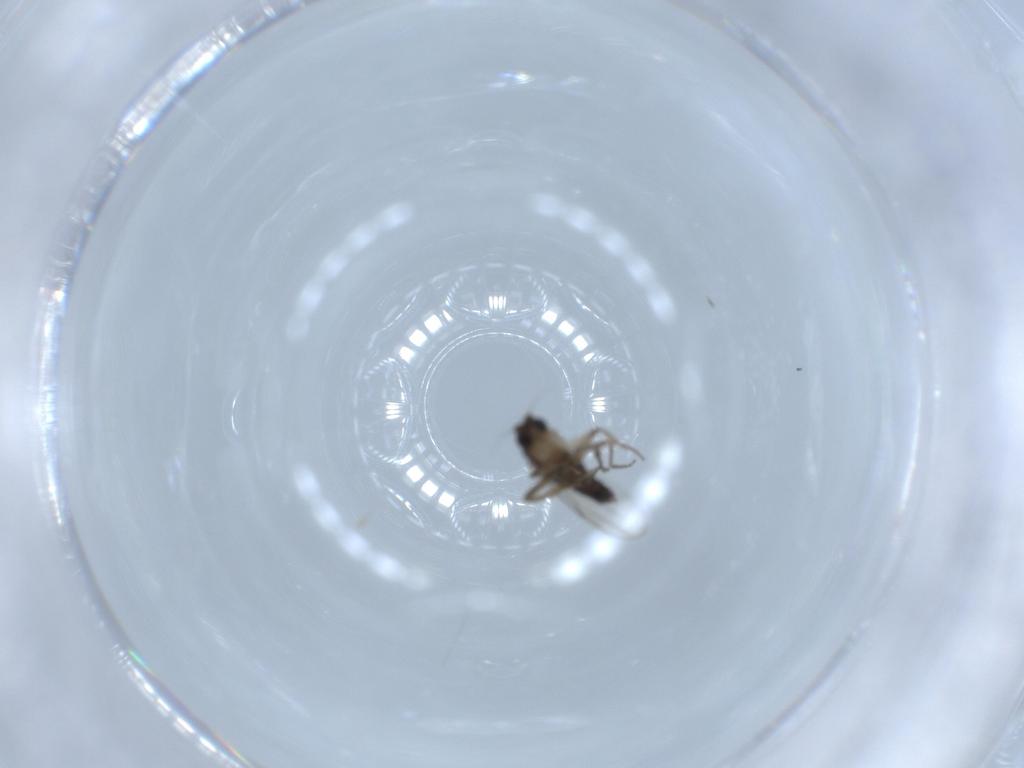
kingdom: Animalia
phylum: Arthropoda
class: Insecta
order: Diptera
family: Phoridae
